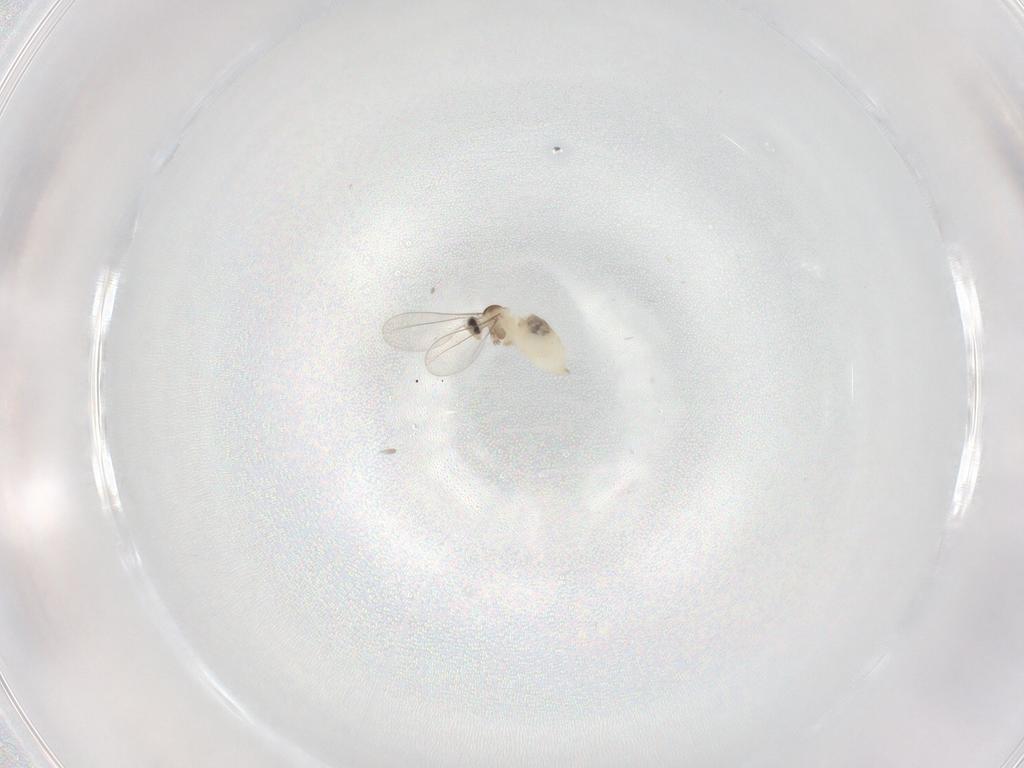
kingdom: Animalia
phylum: Arthropoda
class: Insecta
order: Diptera
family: Cecidomyiidae
